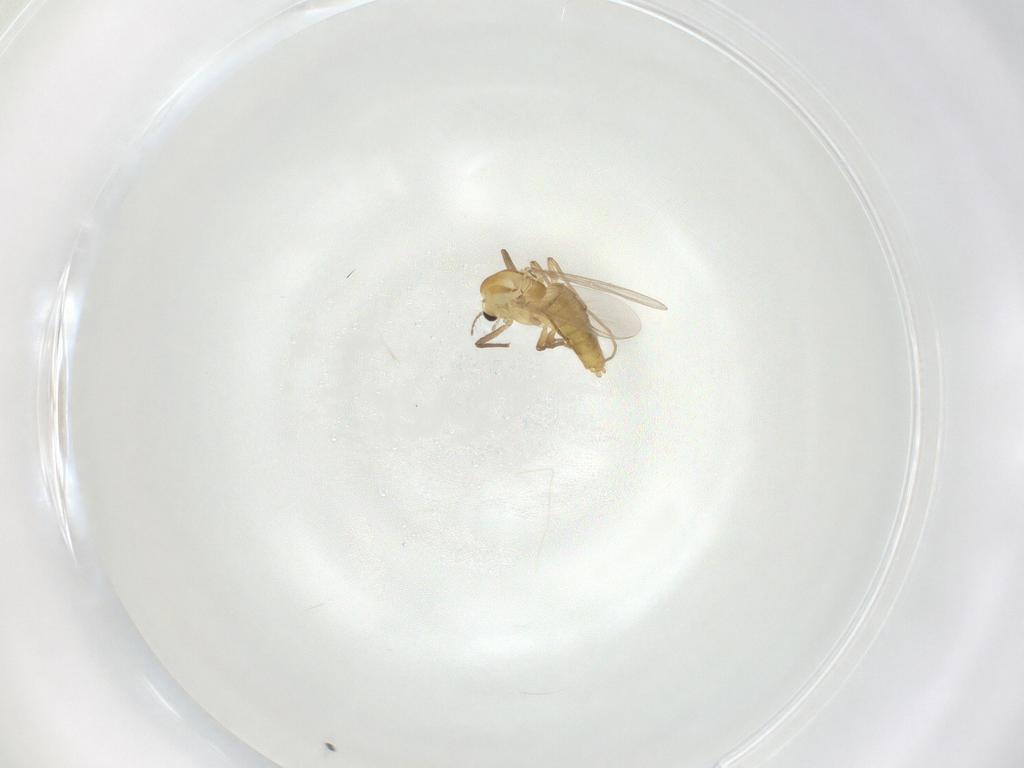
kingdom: Animalia
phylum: Arthropoda
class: Insecta
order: Diptera
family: Chironomidae
